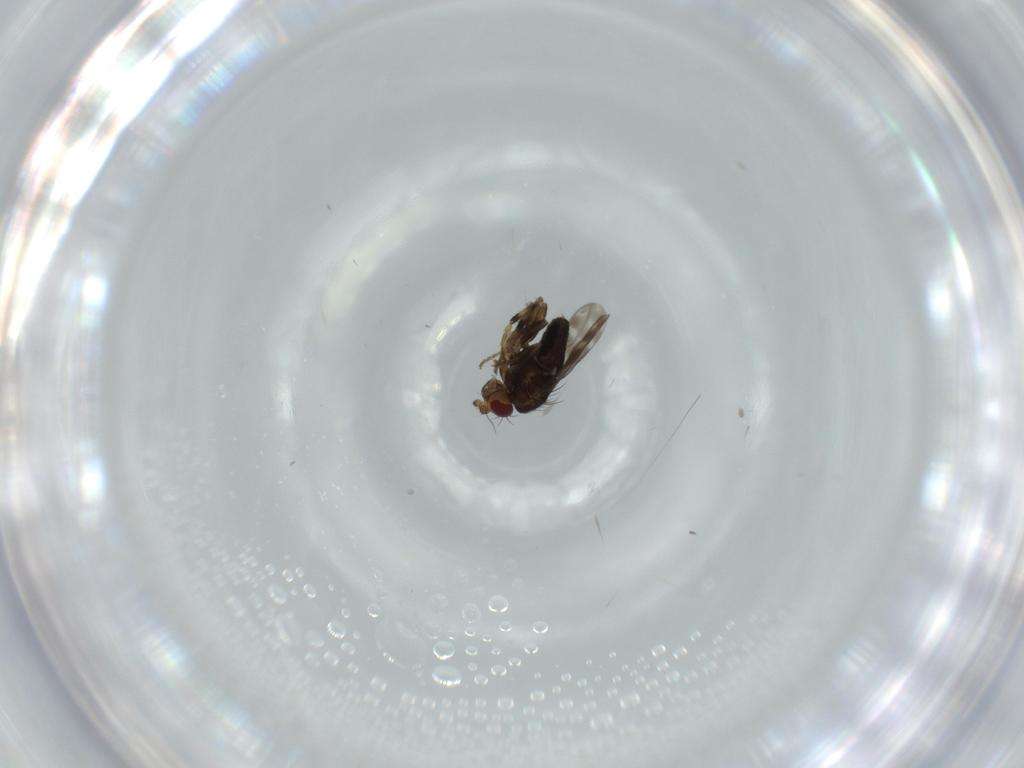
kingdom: Animalia
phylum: Arthropoda
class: Insecta
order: Diptera
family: Sphaeroceridae
